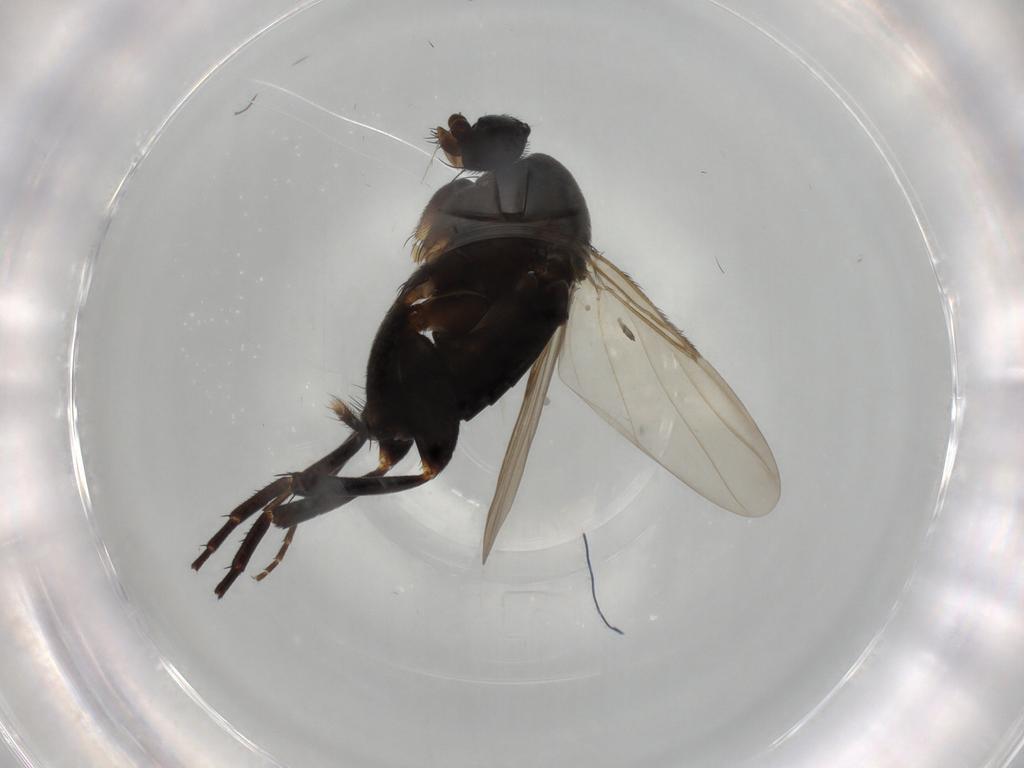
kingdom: Animalia
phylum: Arthropoda
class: Insecta
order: Diptera
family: Phoridae
